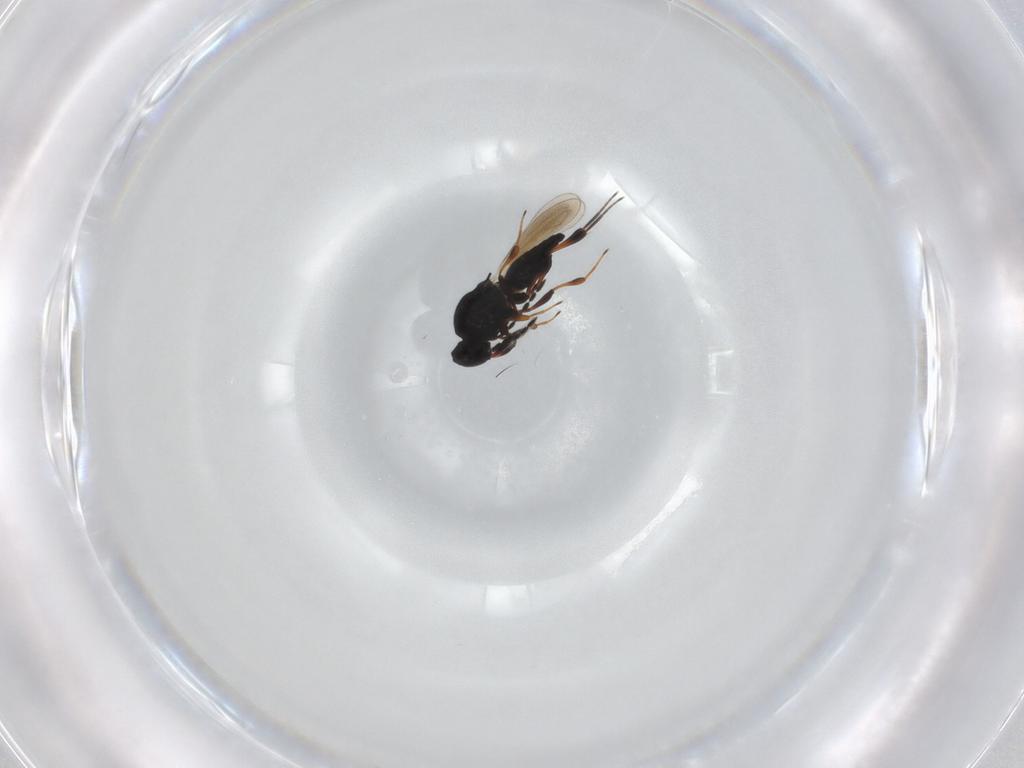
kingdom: Animalia
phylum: Arthropoda
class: Insecta
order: Hymenoptera
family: Platygastridae
